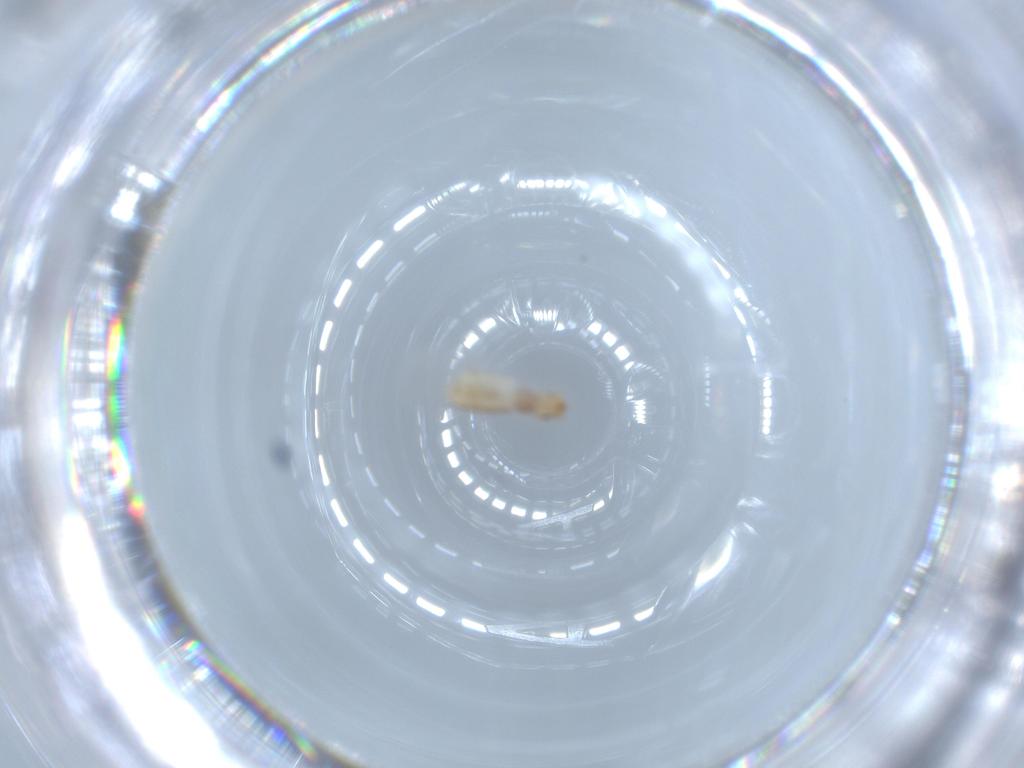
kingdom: Animalia
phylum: Arthropoda
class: Insecta
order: Psocodea
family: Liposcelididae
